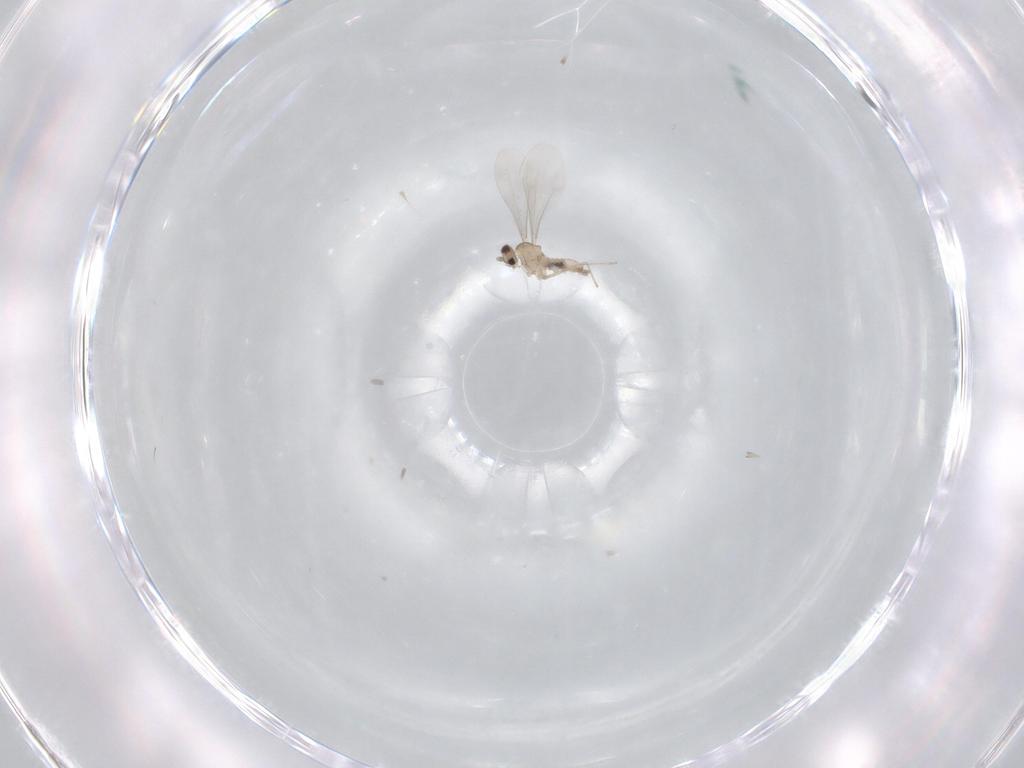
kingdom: Animalia
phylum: Arthropoda
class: Insecta
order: Diptera
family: Cecidomyiidae
